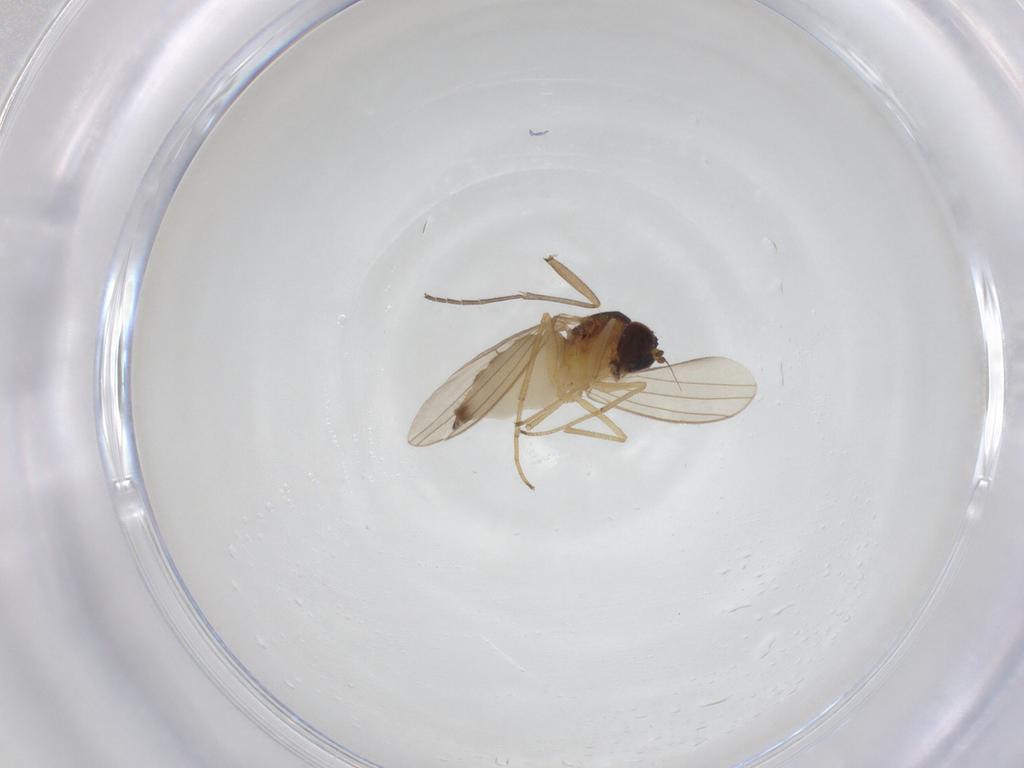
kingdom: Animalia
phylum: Arthropoda
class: Insecta
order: Diptera
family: Dolichopodidae
